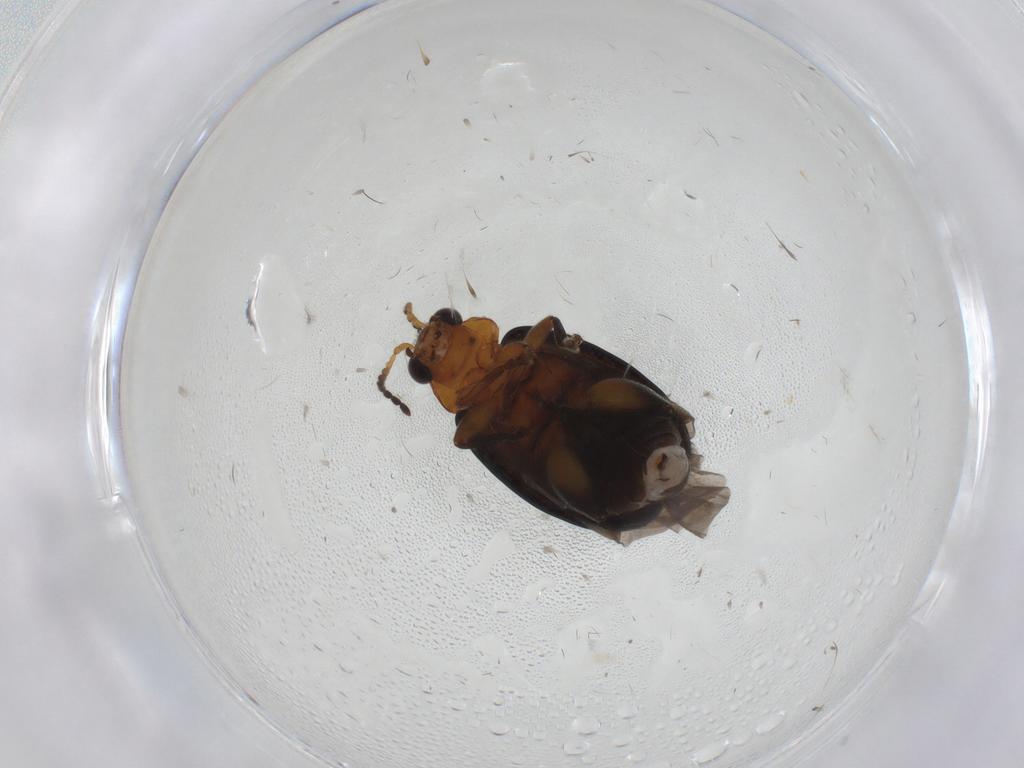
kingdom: Animalia
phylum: Arthropoda
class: Insecta
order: Coleoptera
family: Chrysomelidae
